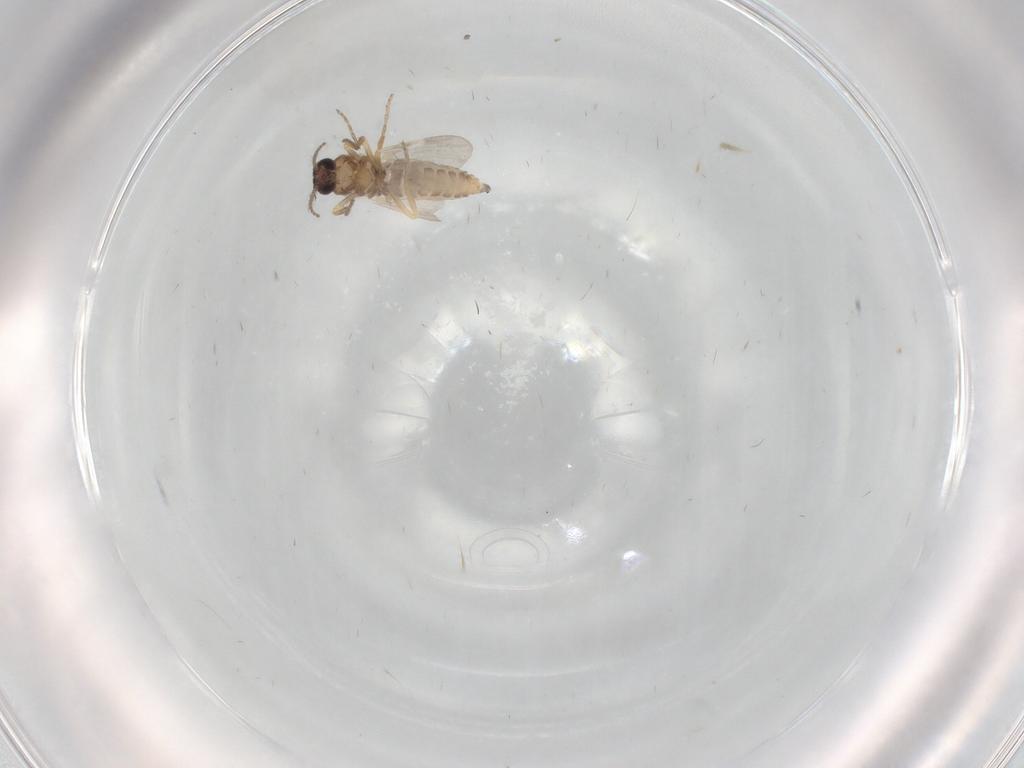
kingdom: Animalia
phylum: Arthropoda
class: Insecta
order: Diptera
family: Ceratopogonidae
